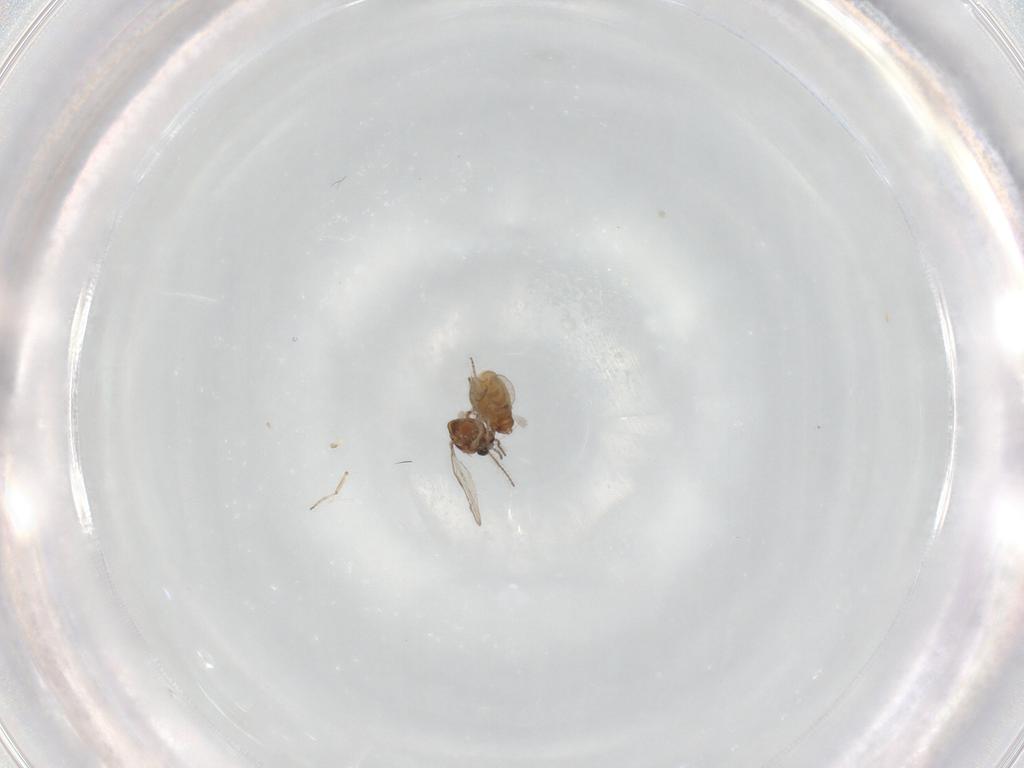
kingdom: Animalia
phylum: Arthropoda
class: Insecta
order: Diptera
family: Ceratopogonidae
